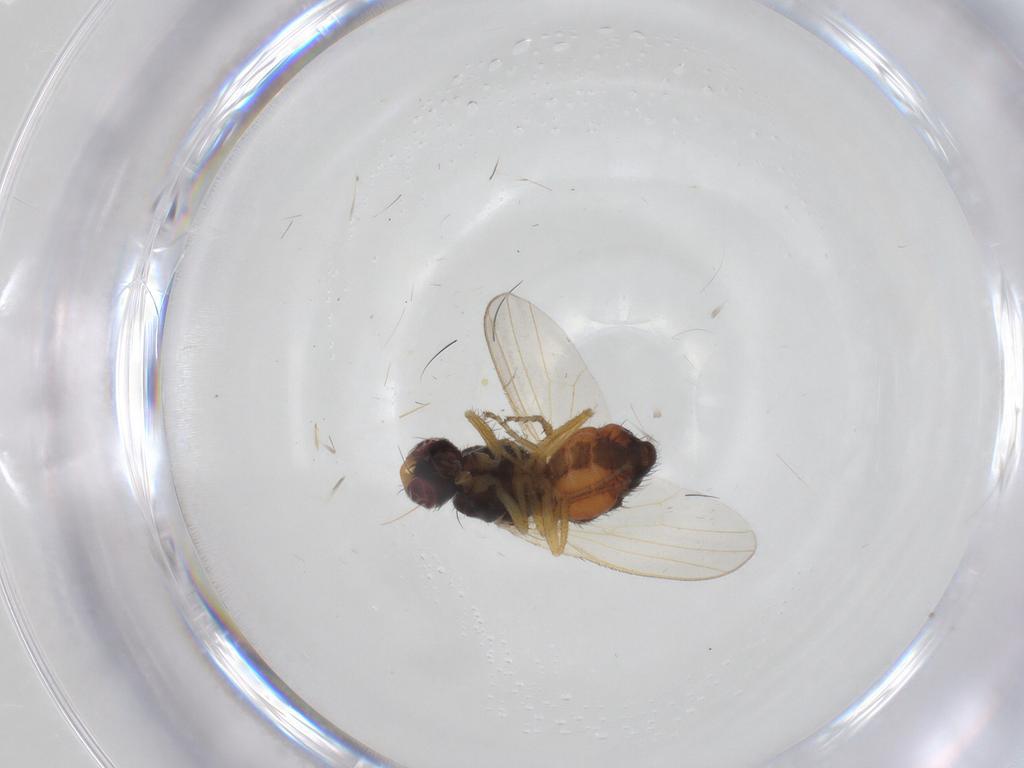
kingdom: Animalia
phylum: Arthropoda
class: Insecta
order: Diptera
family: Heleomyzidae
